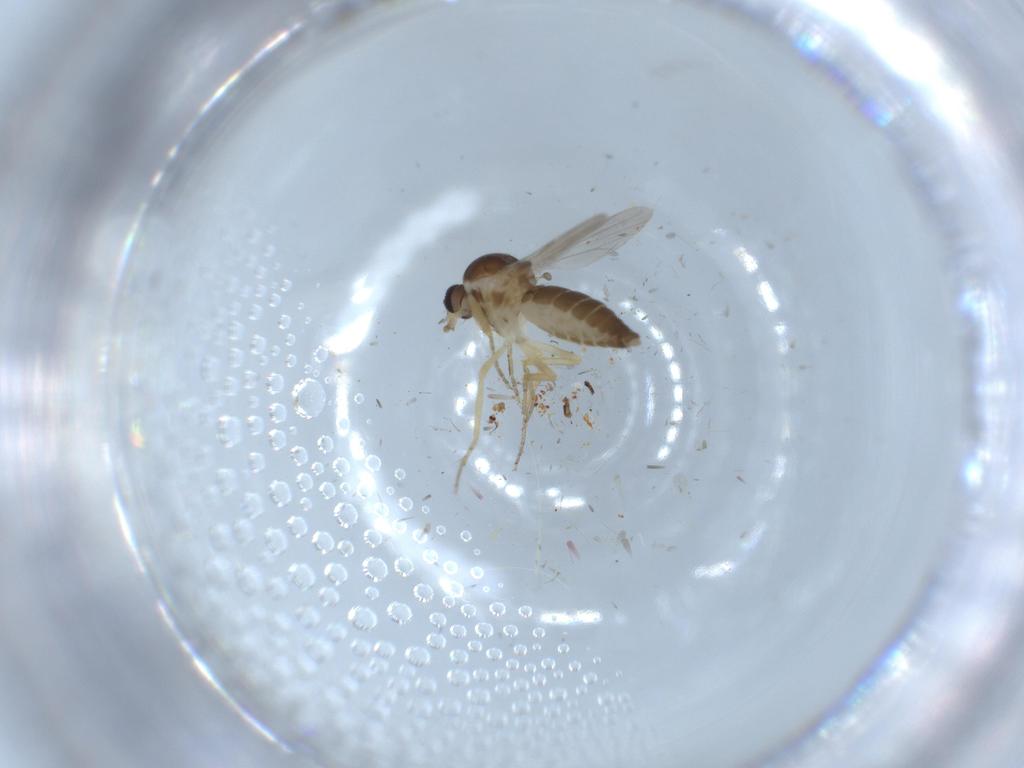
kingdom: Animalia
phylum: Arthropoda
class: Insecta
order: Diptera
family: Ceratopogonidae
